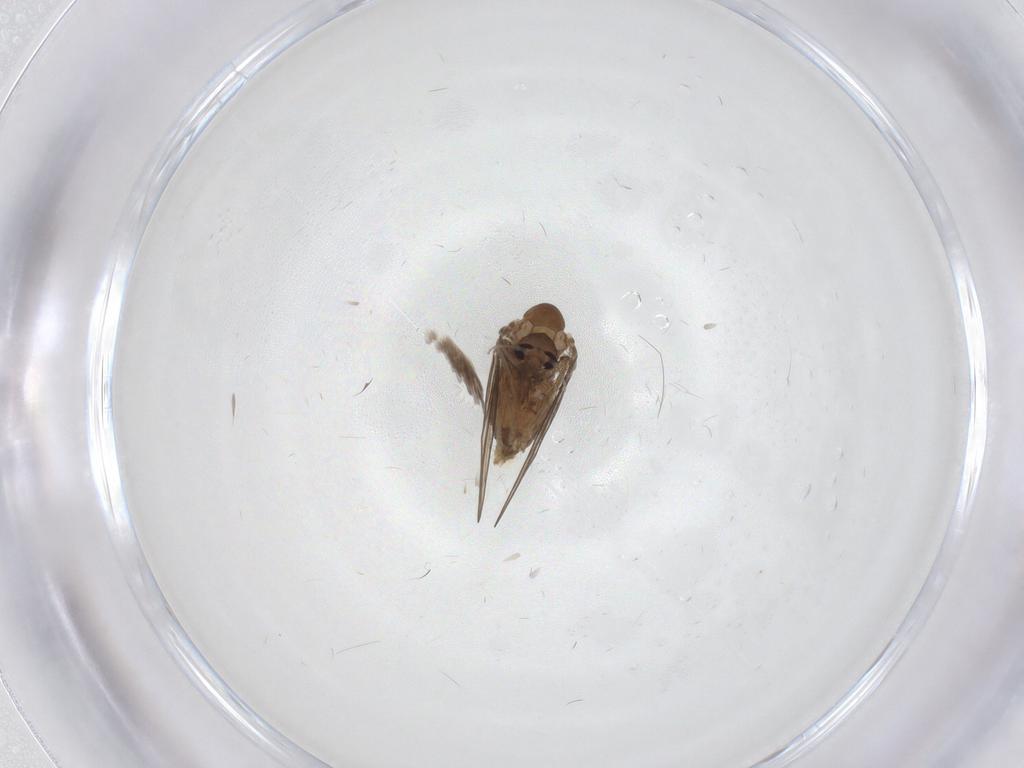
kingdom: Animalia
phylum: Arthropoda
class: Insecta
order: Diptera
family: Psychodidae
